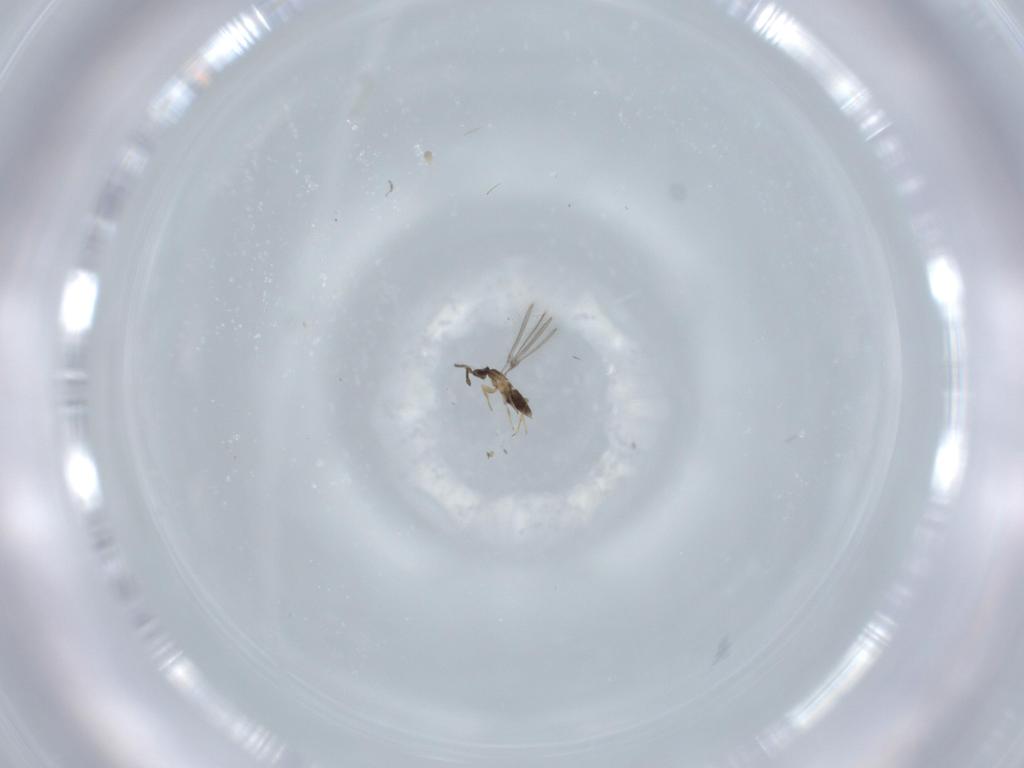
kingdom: Animalia
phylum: Arthropoda
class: Insecta
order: Hymenoptera
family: Mymaridae
